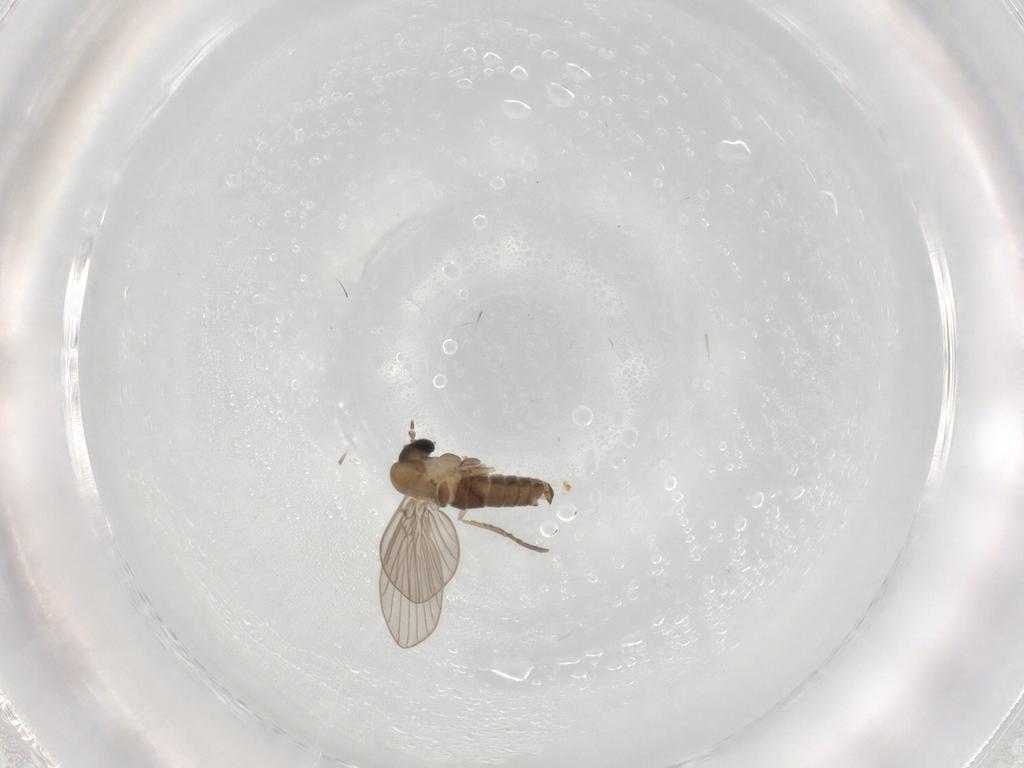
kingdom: Animalia
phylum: Arthropoda
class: Insecta
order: Diptera
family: Psychodidae
